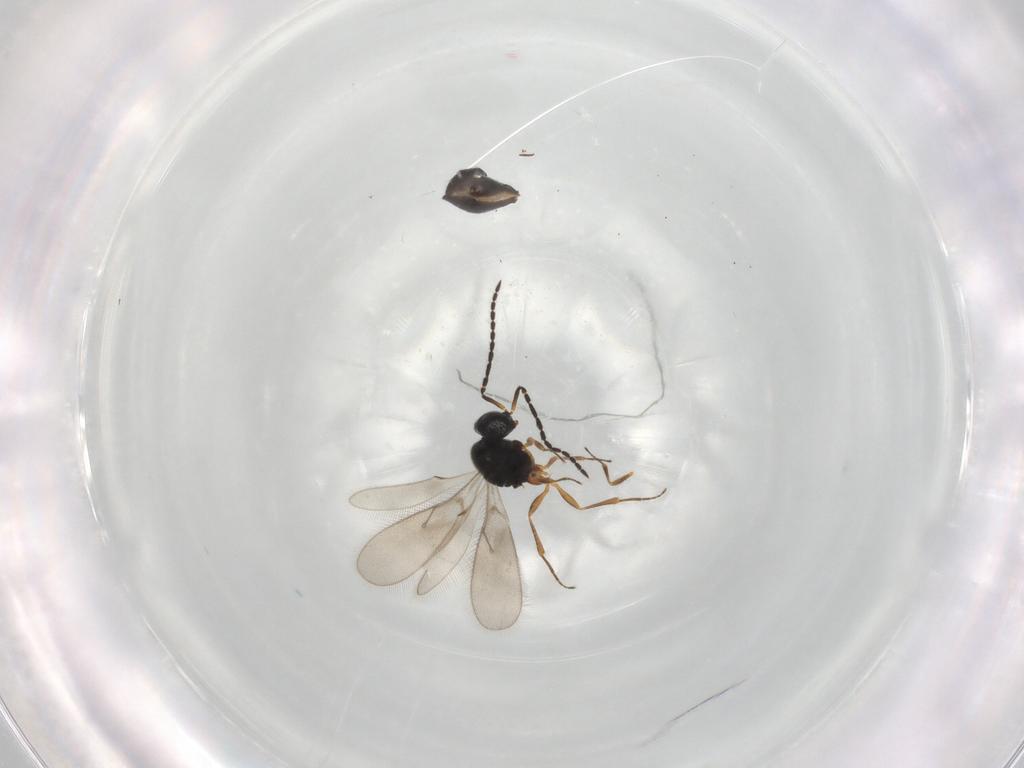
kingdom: Animalia
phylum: Arthropoda
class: Insecta
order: Hymenoptera
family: Scelionidae
